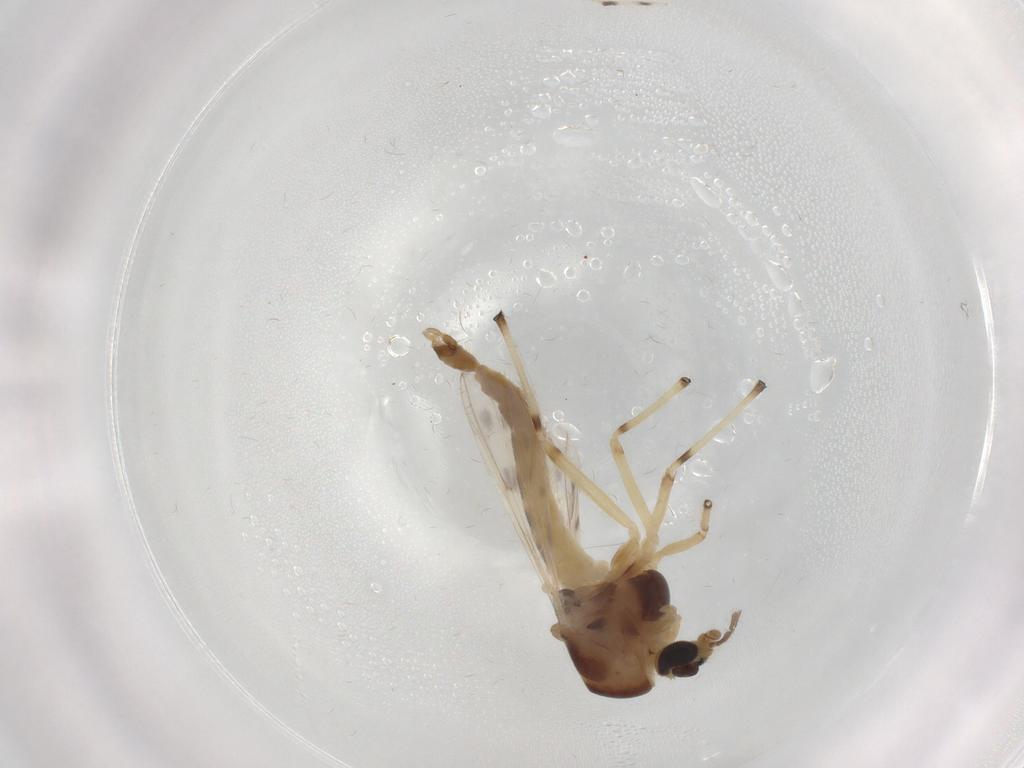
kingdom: Animalia
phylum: Arthropoda
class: Insecta
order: Diptera
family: Chironomidae
